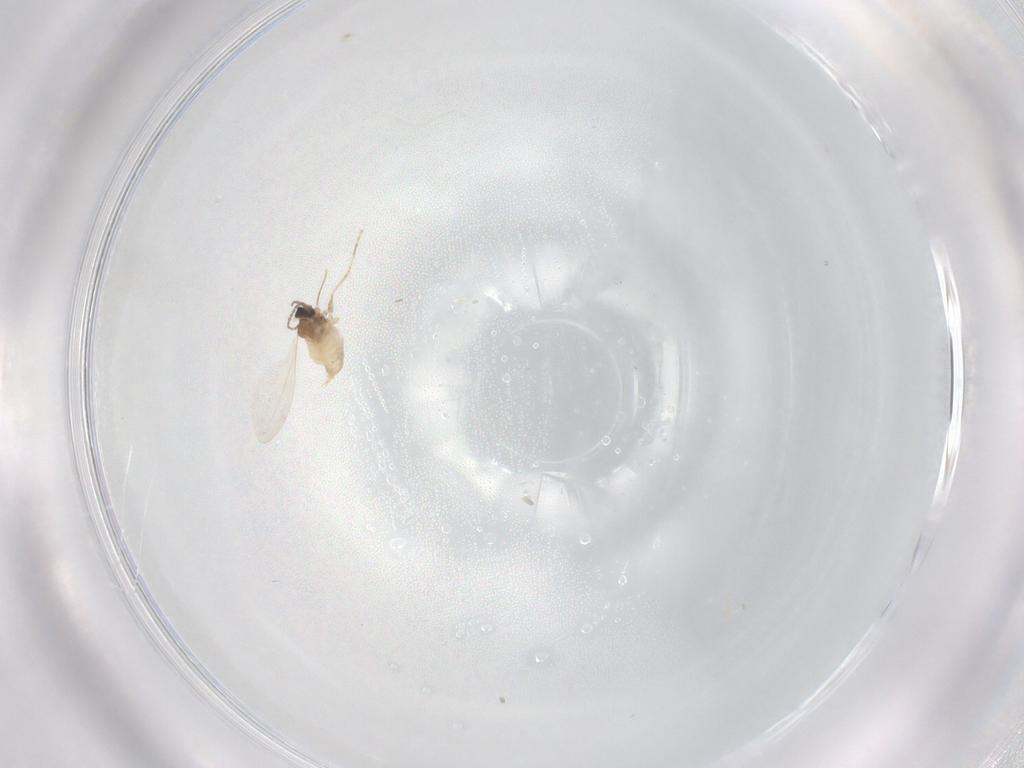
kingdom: Animalia
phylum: Arthropoda
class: Insecta
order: Diptera
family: Cecidomyiidae
